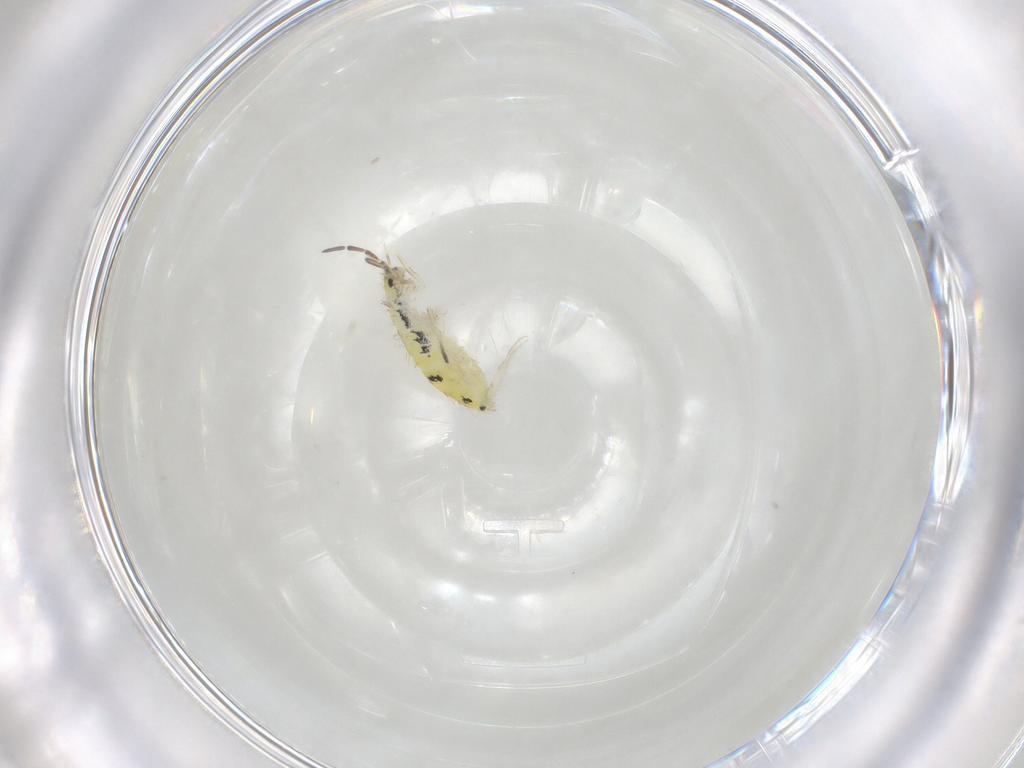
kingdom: Animalia
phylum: Arthropoda
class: Collembola
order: Entomobryomorpha
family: Entomobryidae
